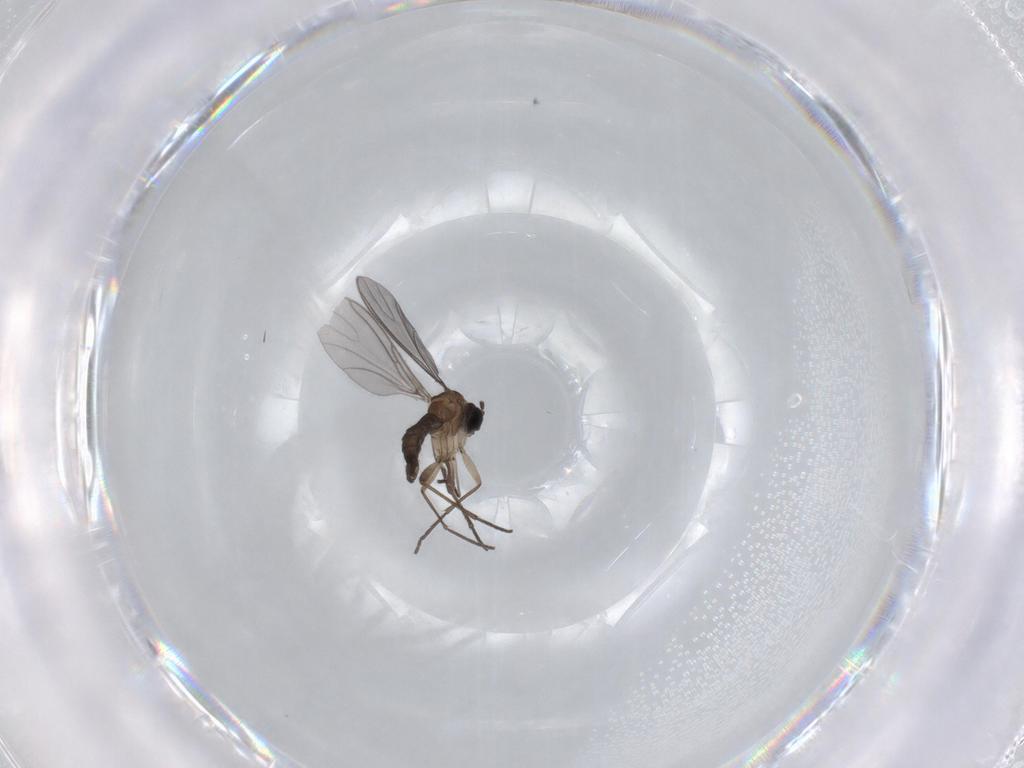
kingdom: Animalia
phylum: Arthropoda
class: Insecta
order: Diptera
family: Sciaridae
